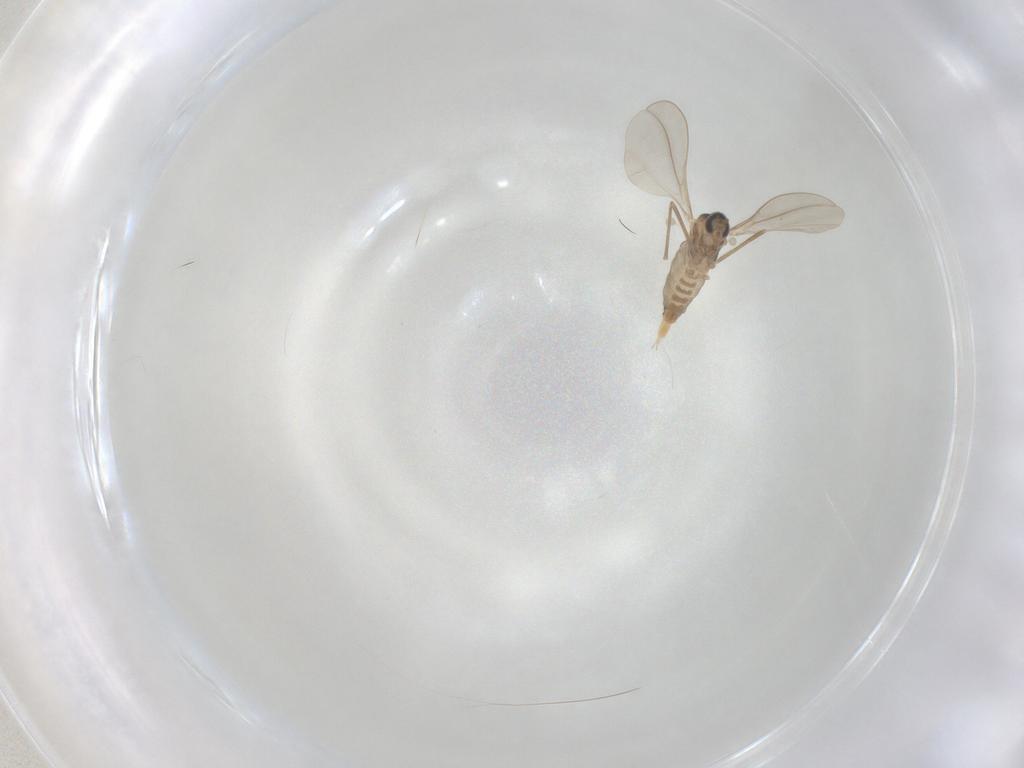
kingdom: Animalia
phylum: Arthropoda
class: Insecta
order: Diptera
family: Cecidomyiidae
